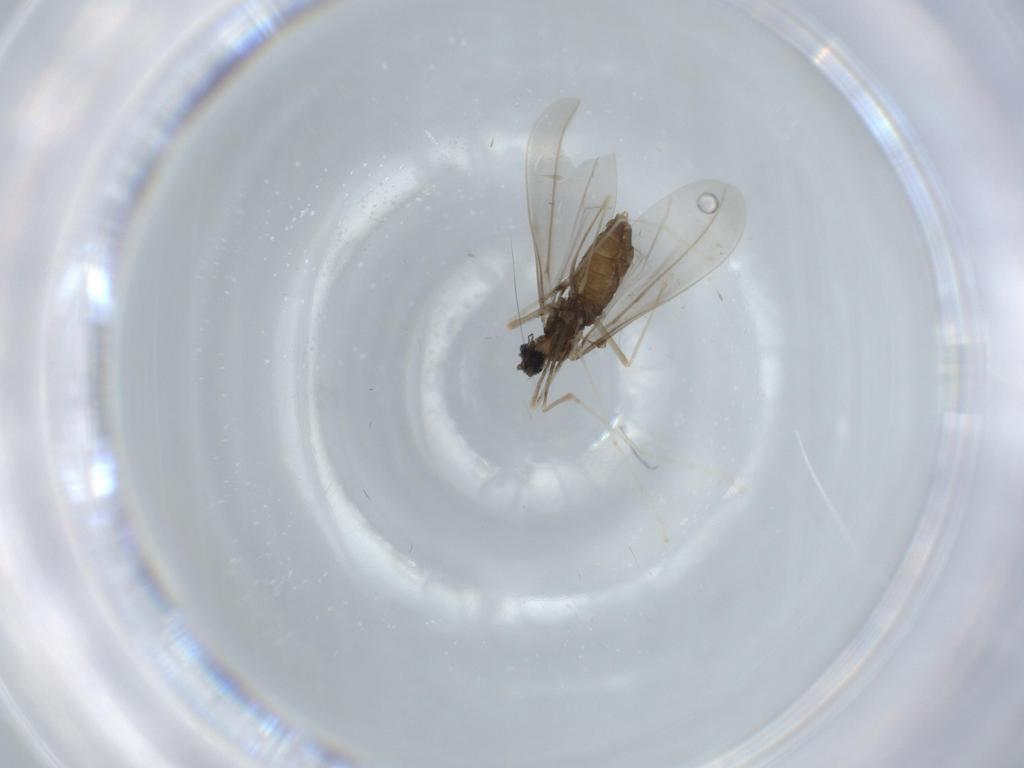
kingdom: Animalia
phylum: Arthropoda
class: Insecta
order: Diptera
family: Cecidomyiidae
